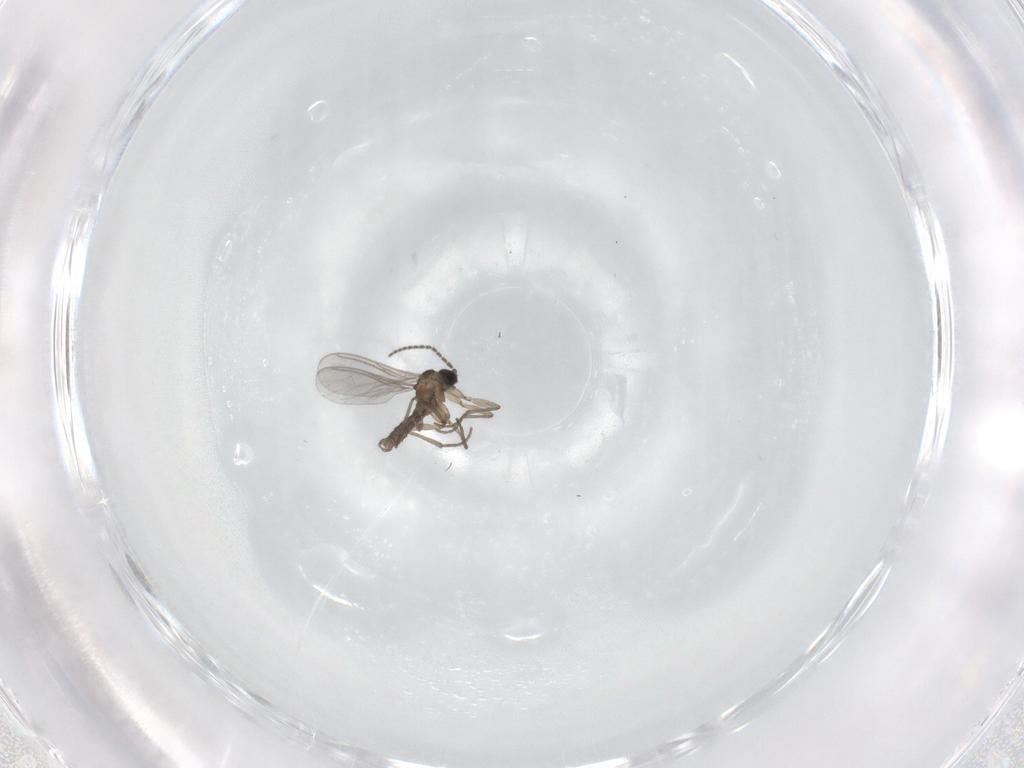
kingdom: Animalia
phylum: Arthropoda
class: Insecta
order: Diptera
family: Sciaridae
